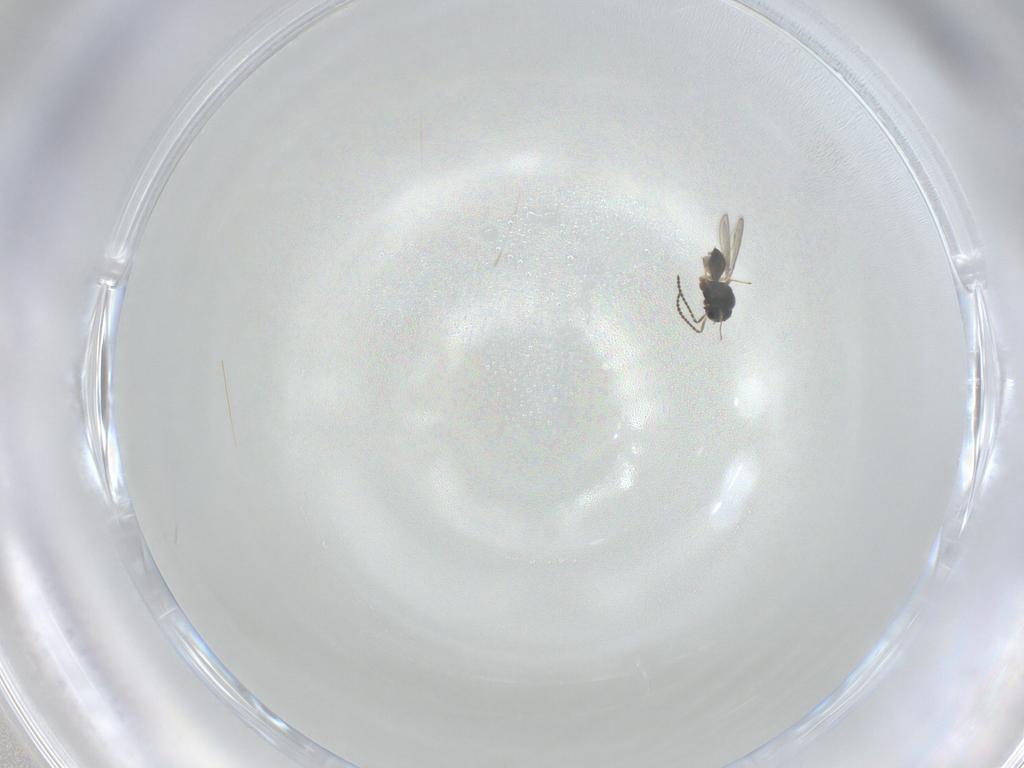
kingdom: Animalia
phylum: Arthropoda
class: Insecta
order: Hymenoptera
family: Scelionidae
